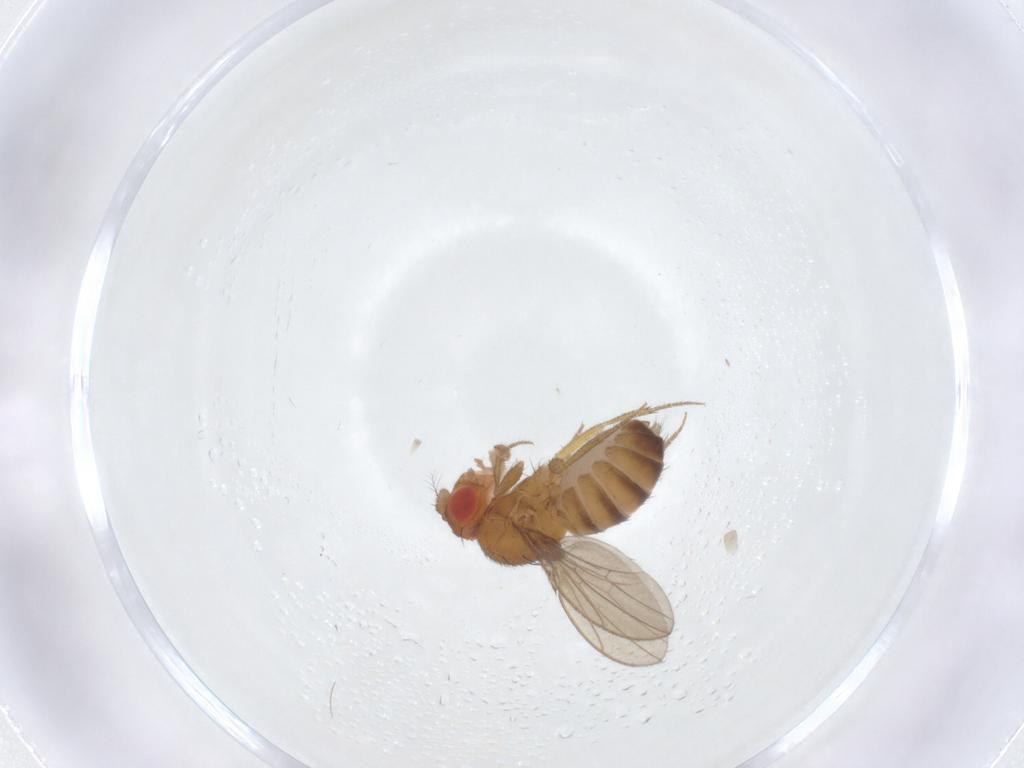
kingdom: Animalia
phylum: Arthropoda
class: Insecta
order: Diptera
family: Drosophilidae
